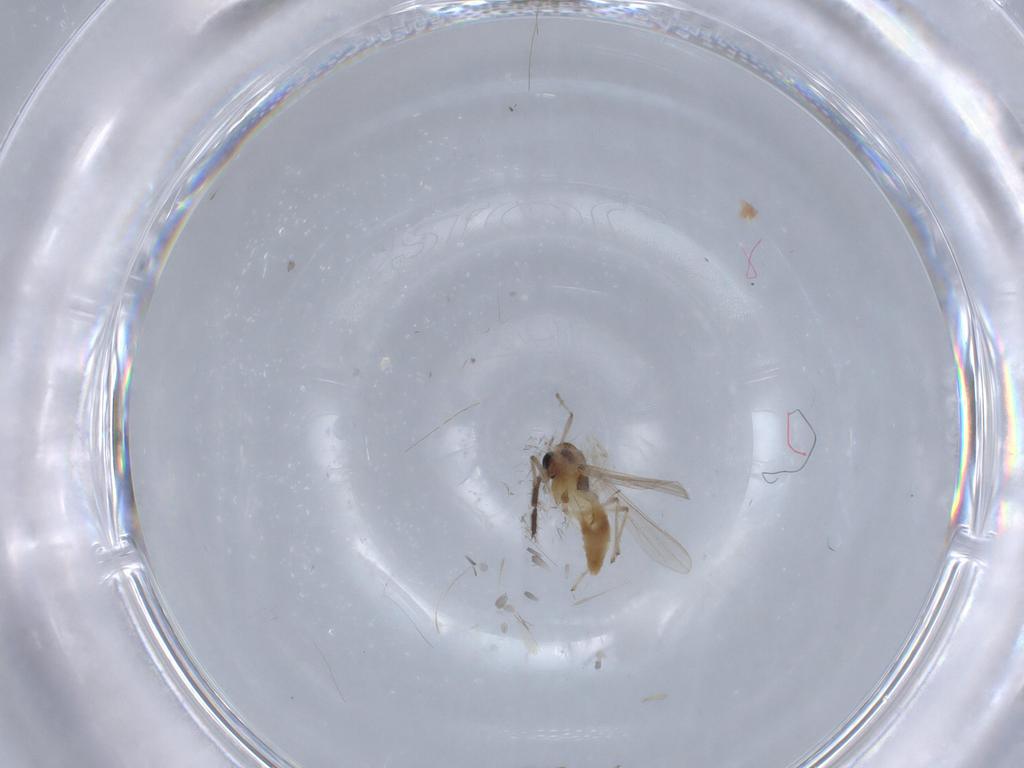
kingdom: Animalia
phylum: Arthropoda
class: Insecta
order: Diptera
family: Chironomidae
